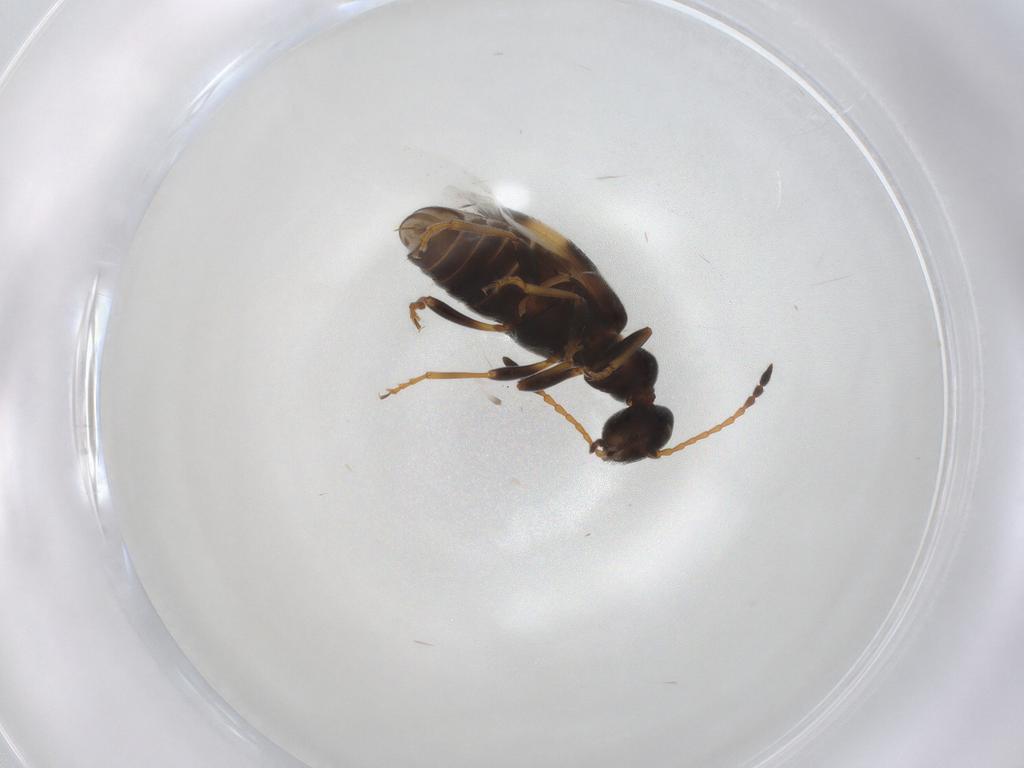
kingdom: Animalia
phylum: Arthropoda
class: Insecta
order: Coleoptera
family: Anthicidae
